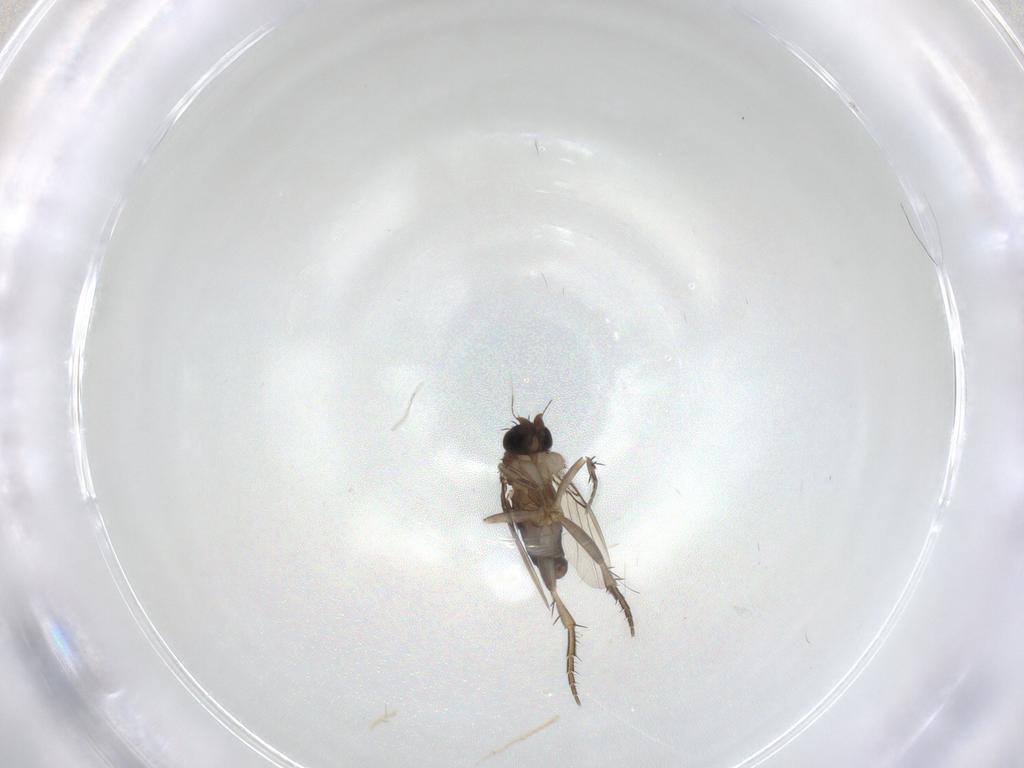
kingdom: Animalia
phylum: Arthropoda
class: Insecta
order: Diptera
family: Phoridae
